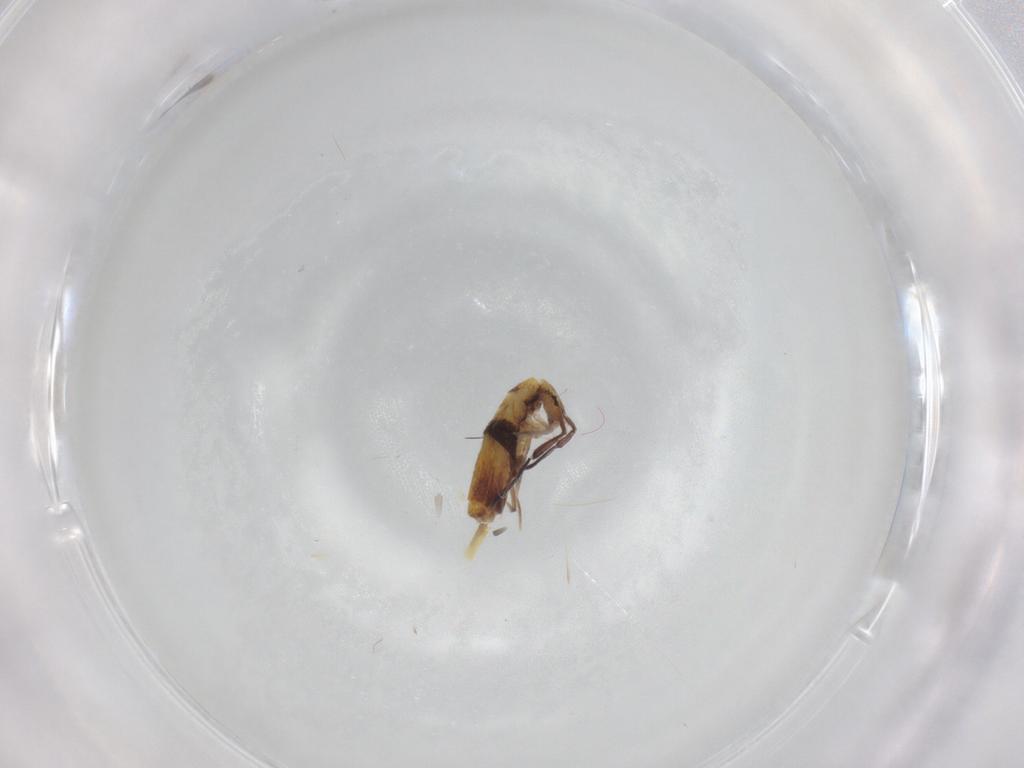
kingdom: Animalia
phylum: Arthropoda
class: Collembola
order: Entomobryomorpha
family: Entomobryidae
